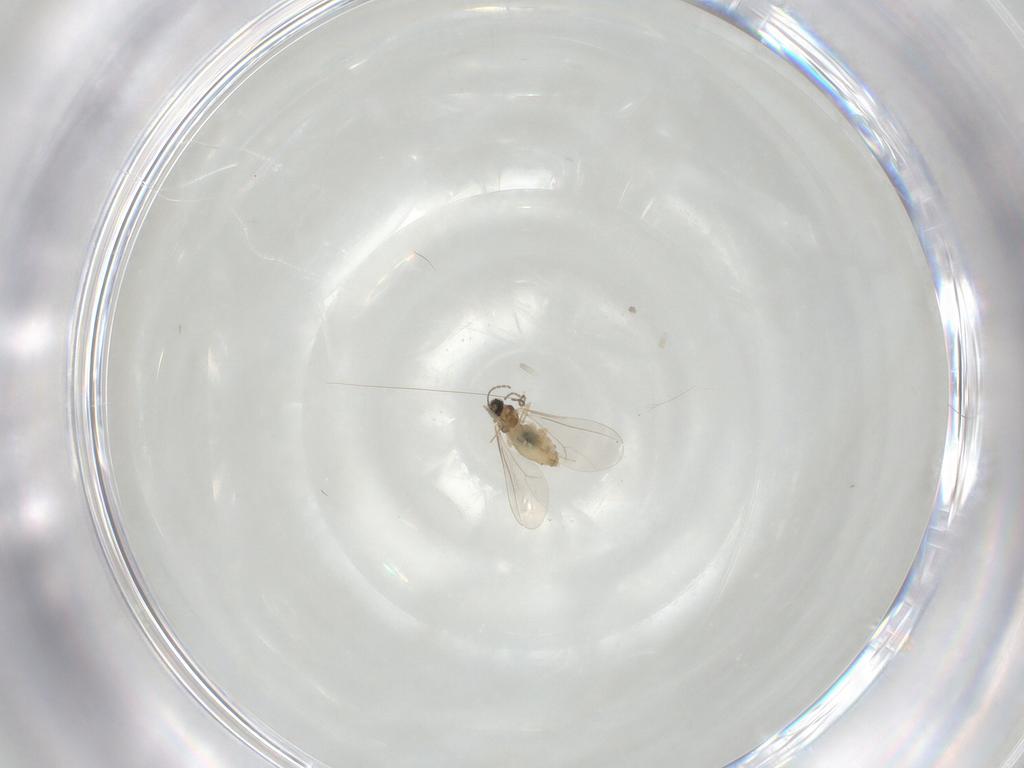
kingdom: Animalia
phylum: Arthropoda
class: Insecta
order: Diptera
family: Cecidomyiidae
